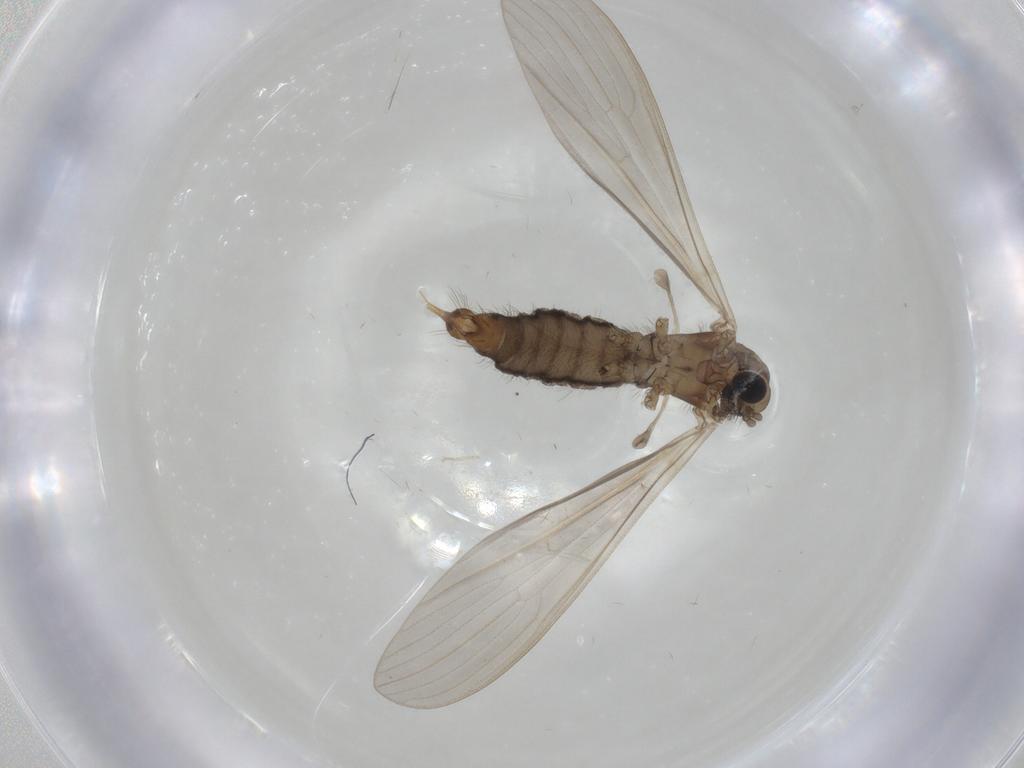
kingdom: Animalia
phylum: Arthropoda
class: Insecta
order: Diptera
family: Limoniidae
